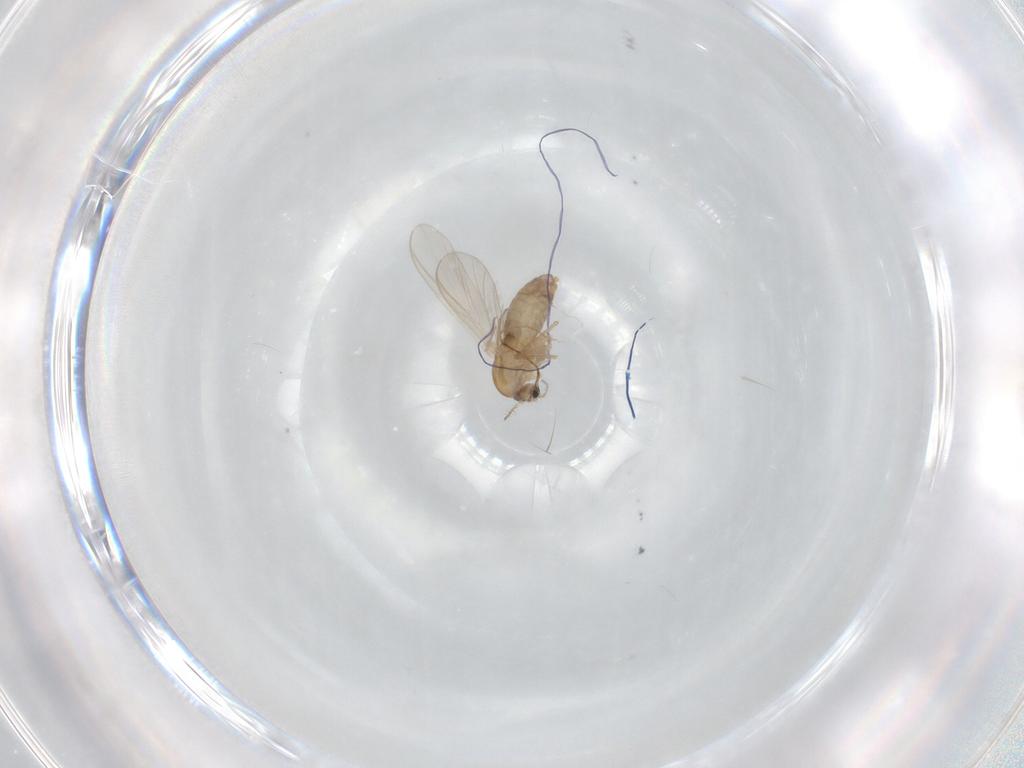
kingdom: Animalia
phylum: Arthropoda
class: Insecta
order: Diptera
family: Chironomidae
